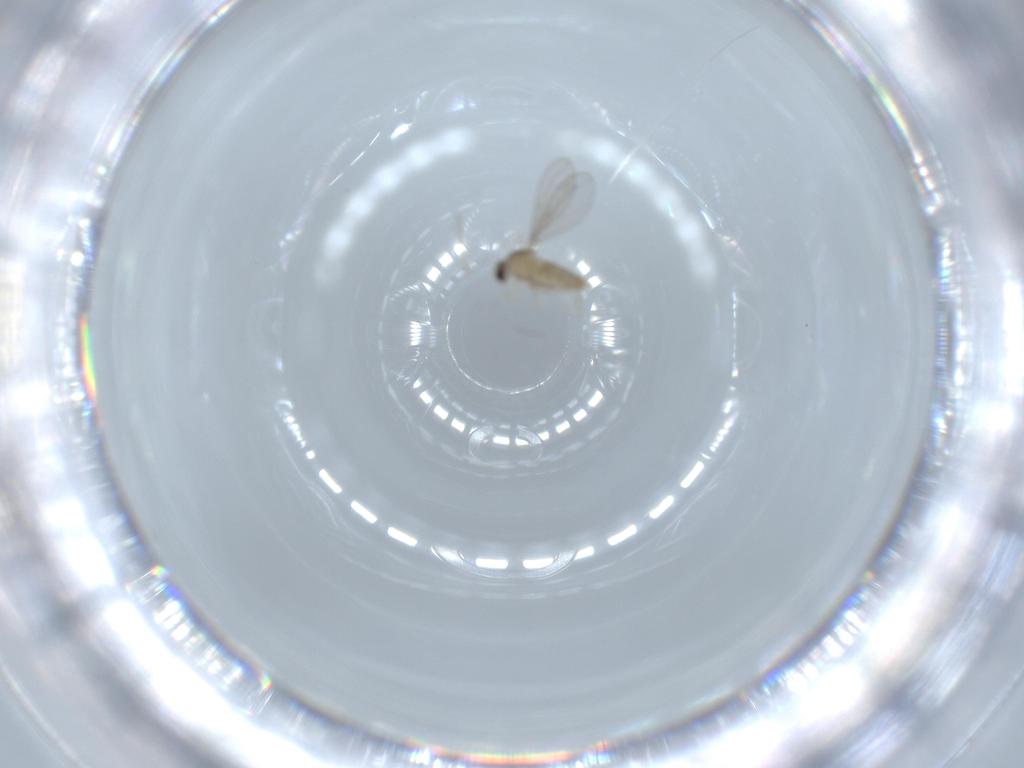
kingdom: Animalia
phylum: Arthropoda
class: Insecta
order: Diptera
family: Cecidomyiidae
